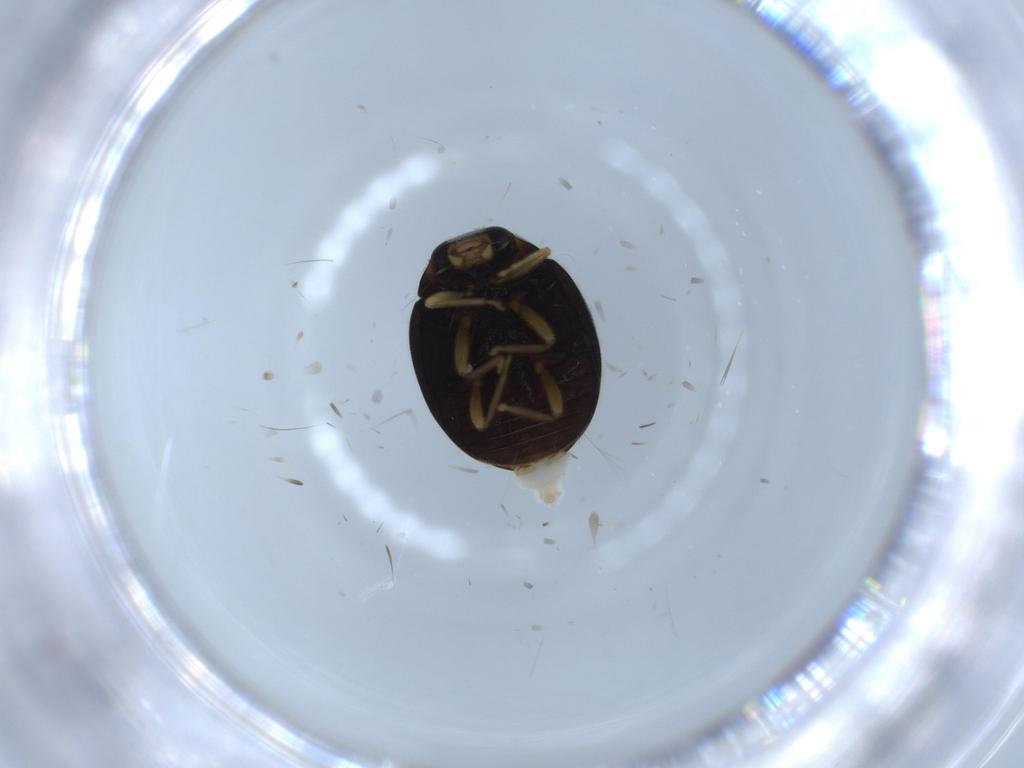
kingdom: Animalia
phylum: Arthropoda
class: Insecta
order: Coleoptera
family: Coccinellidae
